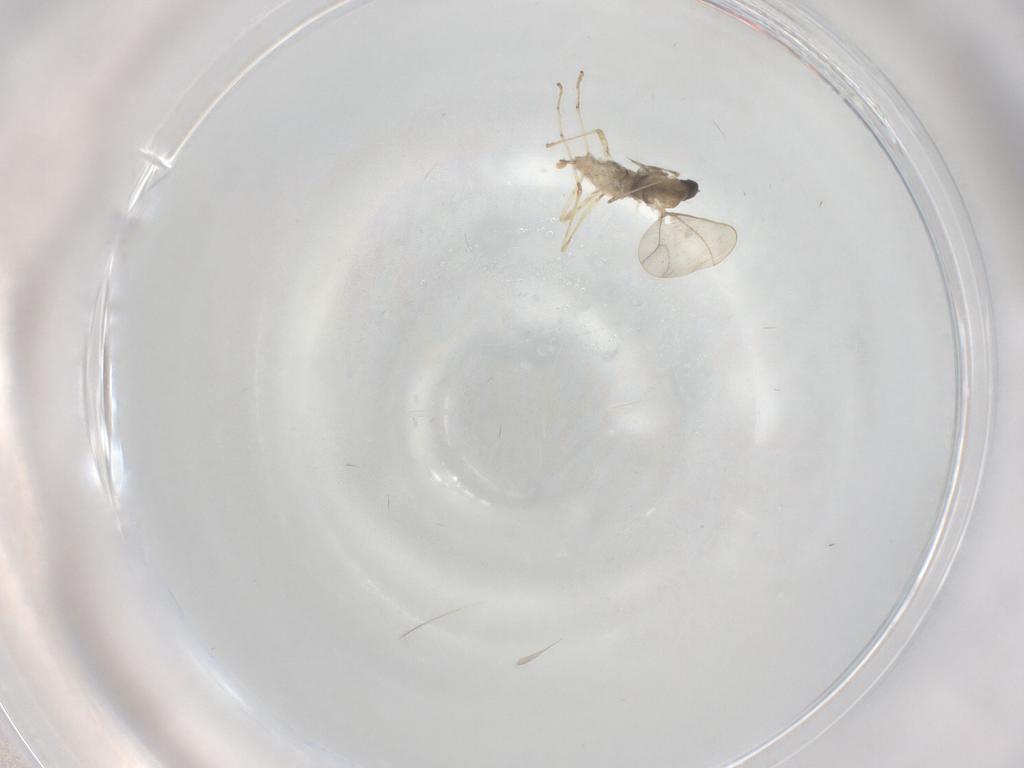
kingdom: Animalia
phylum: Arthropoda
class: Insecta
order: Diptera
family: Cecidomyiidae
